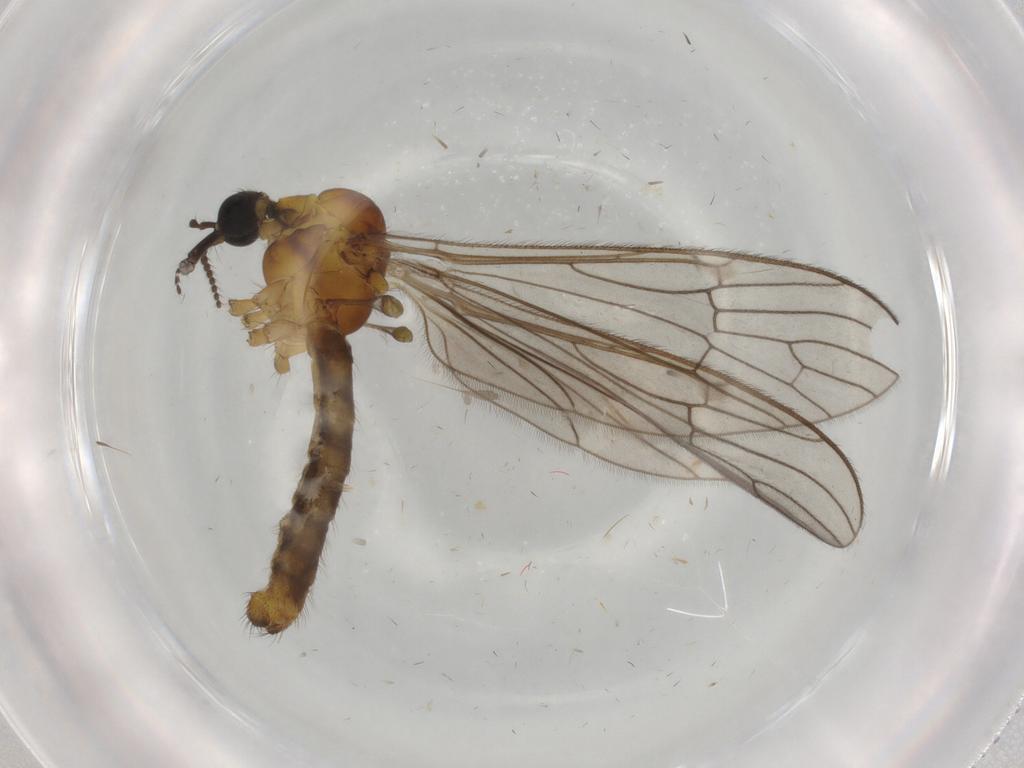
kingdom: Animalia
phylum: Arthropoda
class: Insecta
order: Diptera
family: Limoniidae
